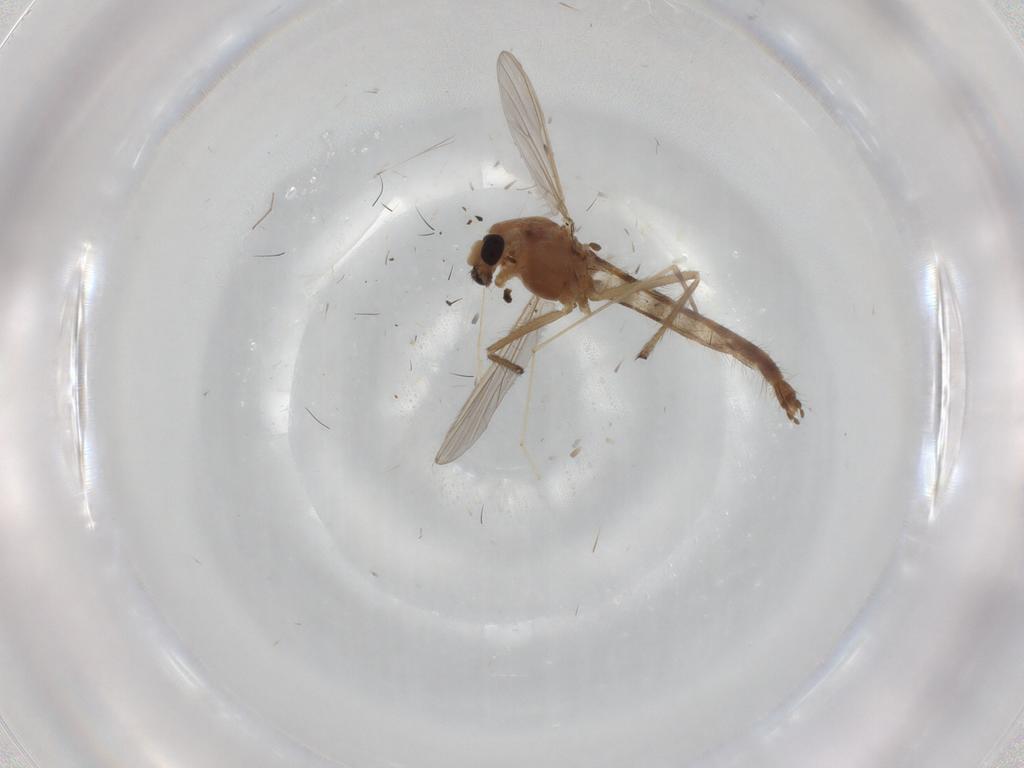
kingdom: Animalia
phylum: Arthropoda
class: Insecta
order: Diptera
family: Chironomidae
